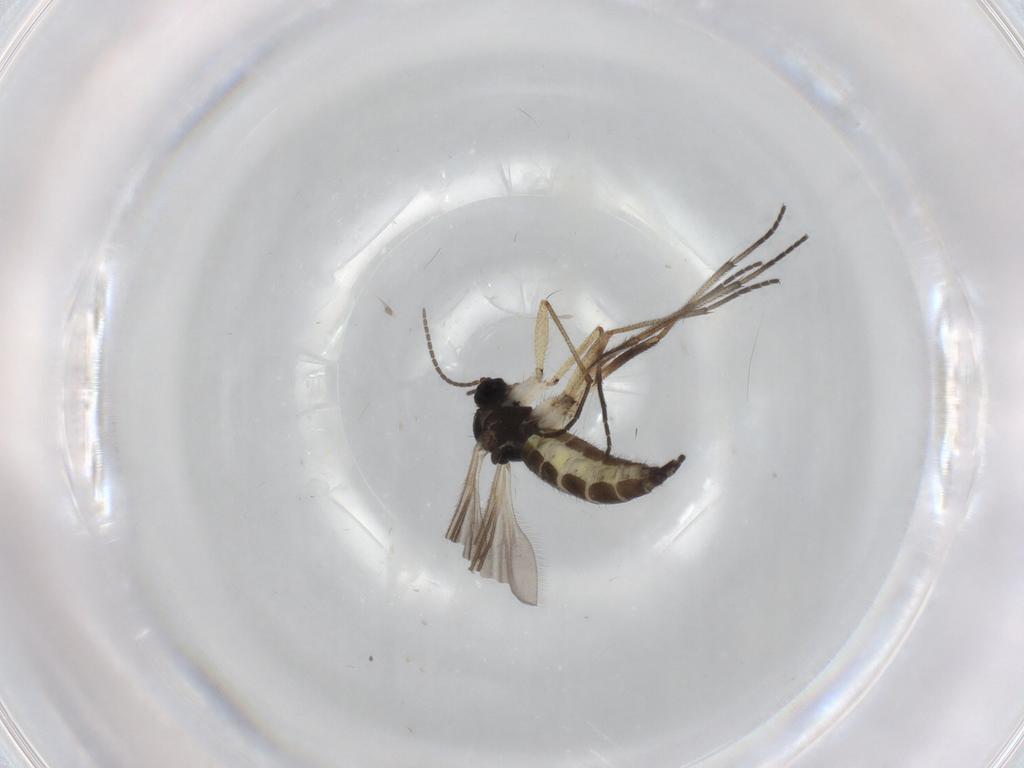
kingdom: Animalia
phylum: Arthropoda
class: Insecta
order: Diptera
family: Sciaridae
